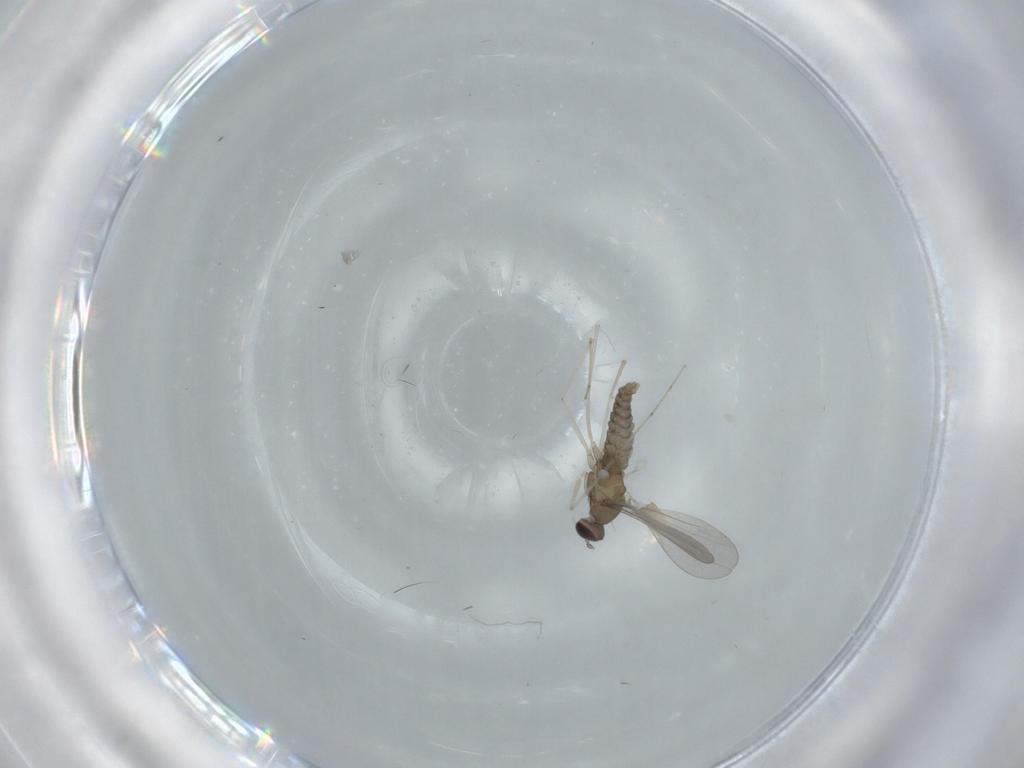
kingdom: Animalia
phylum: Arthropoda
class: Insecta
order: Diptera
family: Cecidomyiidae
